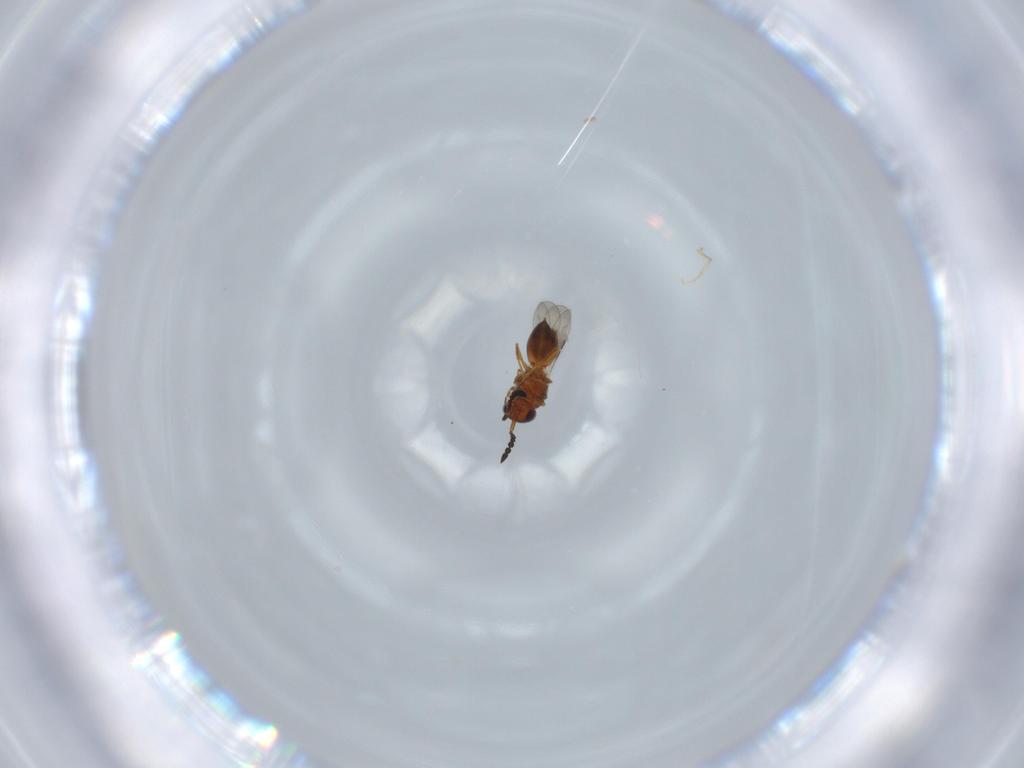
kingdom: Animalia
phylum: Arthropoda
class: Insecta
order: Hymenoptera
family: Ceraphronidae
